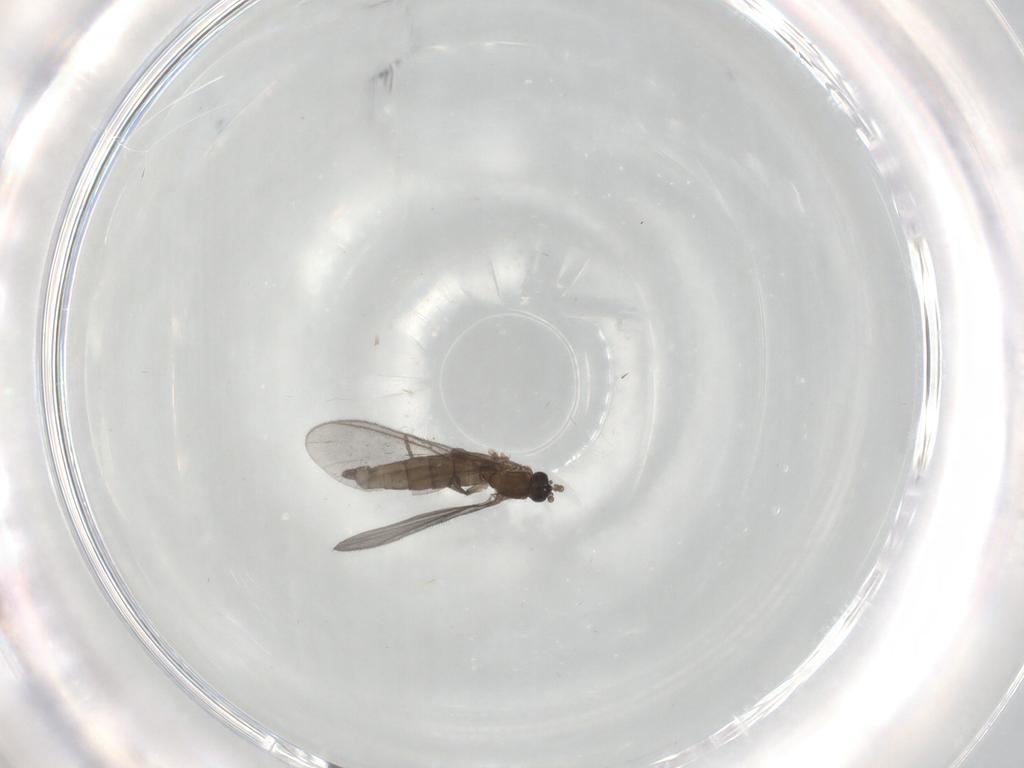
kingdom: Animalia
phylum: Arthropoda
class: Insecta
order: Diptera
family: Sciaridae
